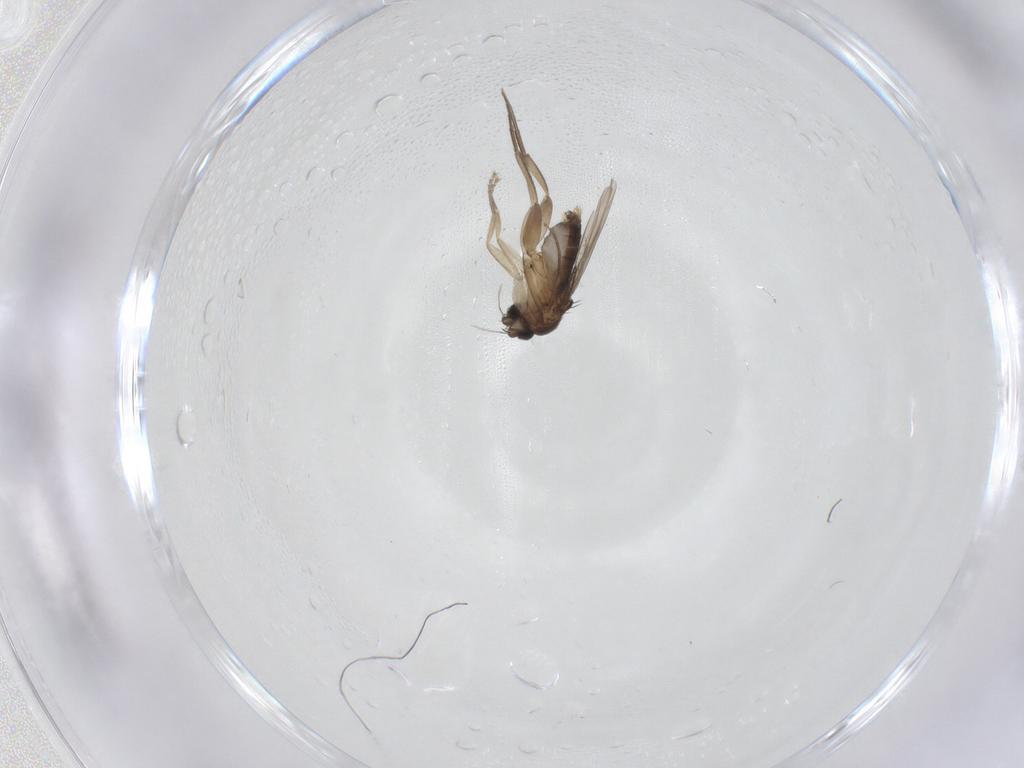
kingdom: Animalia
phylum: Arthropoda
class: Insecta
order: Diptera
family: Phoridae
